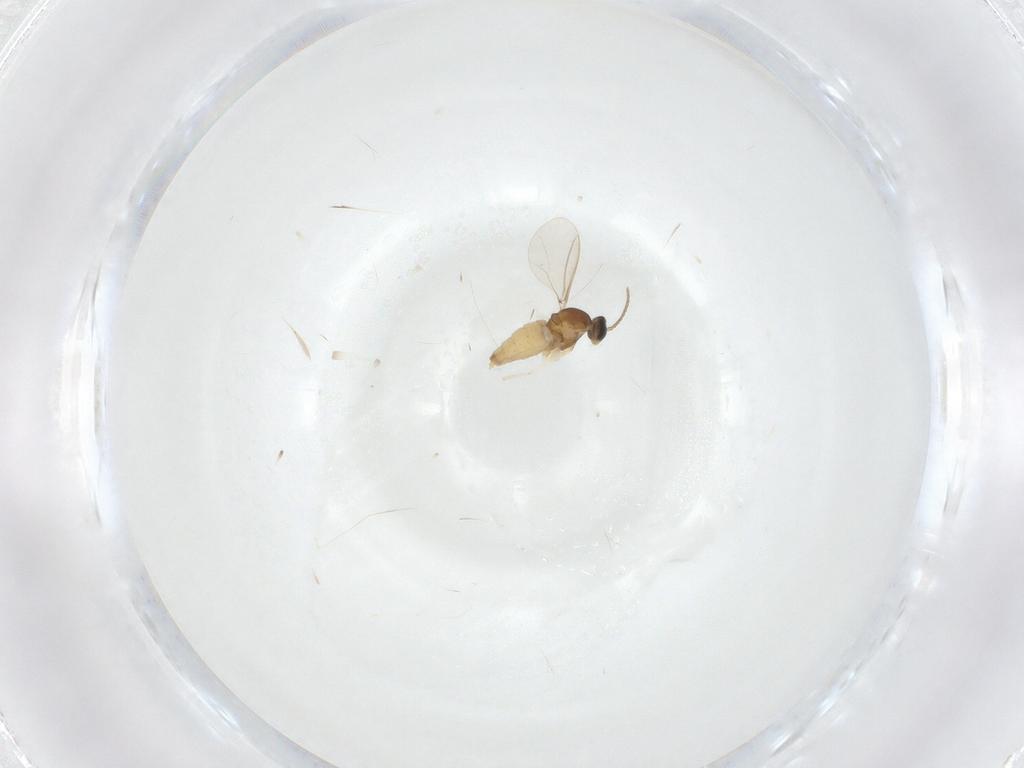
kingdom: Animalia
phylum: Arthropoda
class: Insecta
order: Diptera
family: Cecidomyiidae
